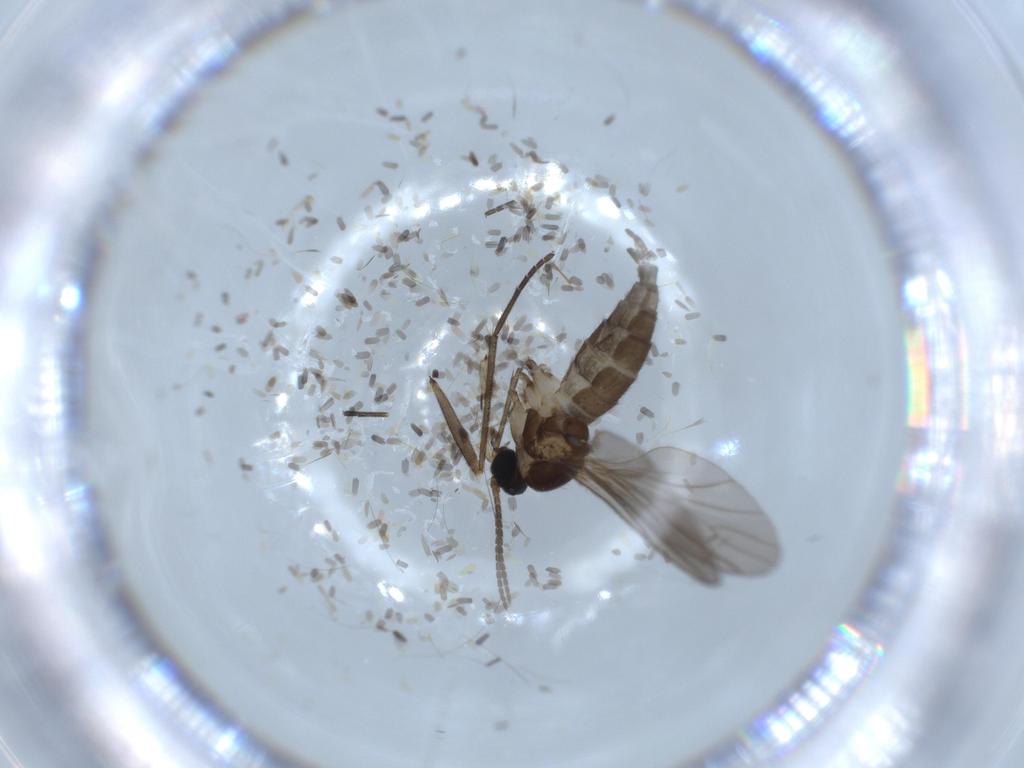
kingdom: Animalia
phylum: Arthropoda
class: Insecta
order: Diptera
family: Sciaridae
